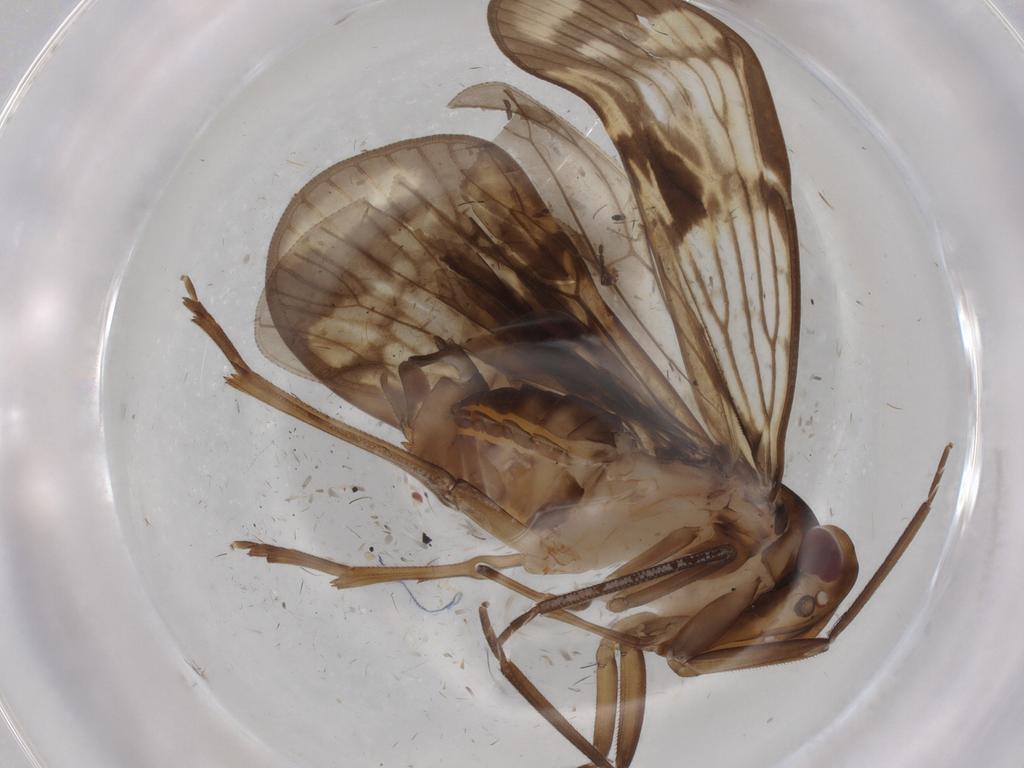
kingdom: Animalia
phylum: Arthropoda
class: Insecta
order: Hemiptera
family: Cixiidae
